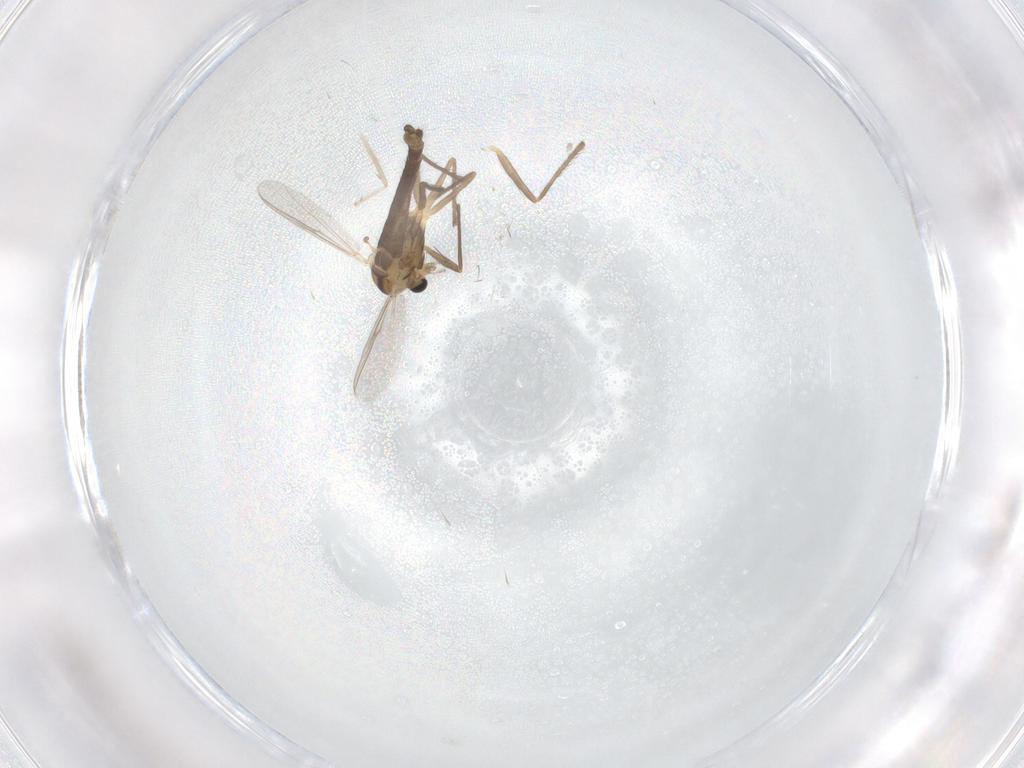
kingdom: Animalia
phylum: Arthropoda
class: Insecta
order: Diptera
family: Chironomidae
